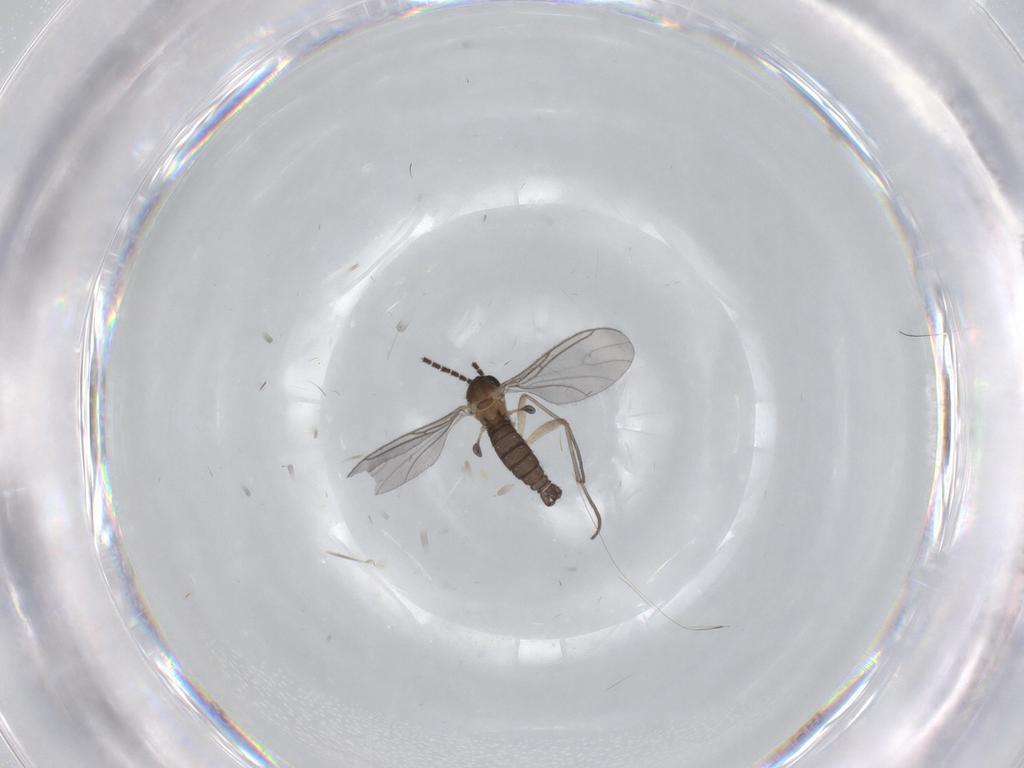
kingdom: Animalia
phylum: Arthropoda
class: Insecta
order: Diptera
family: Sciaridae
